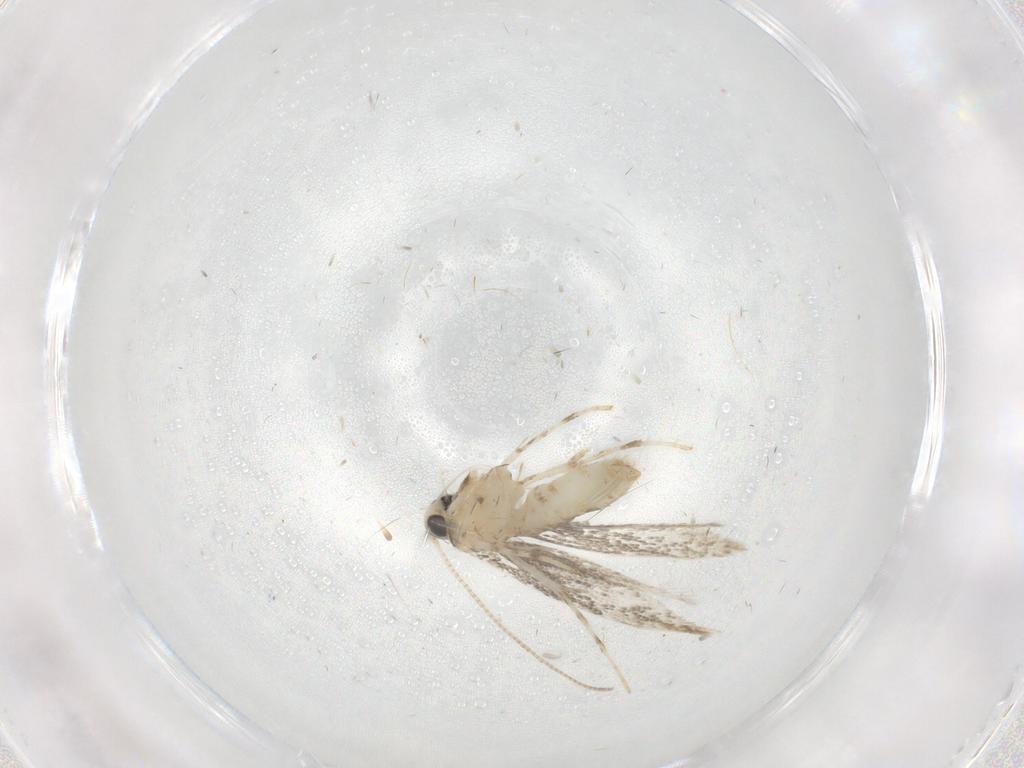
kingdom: Animalia
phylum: Arthropoda
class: Insecta
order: Lepidoptera
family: Gracillariidae
